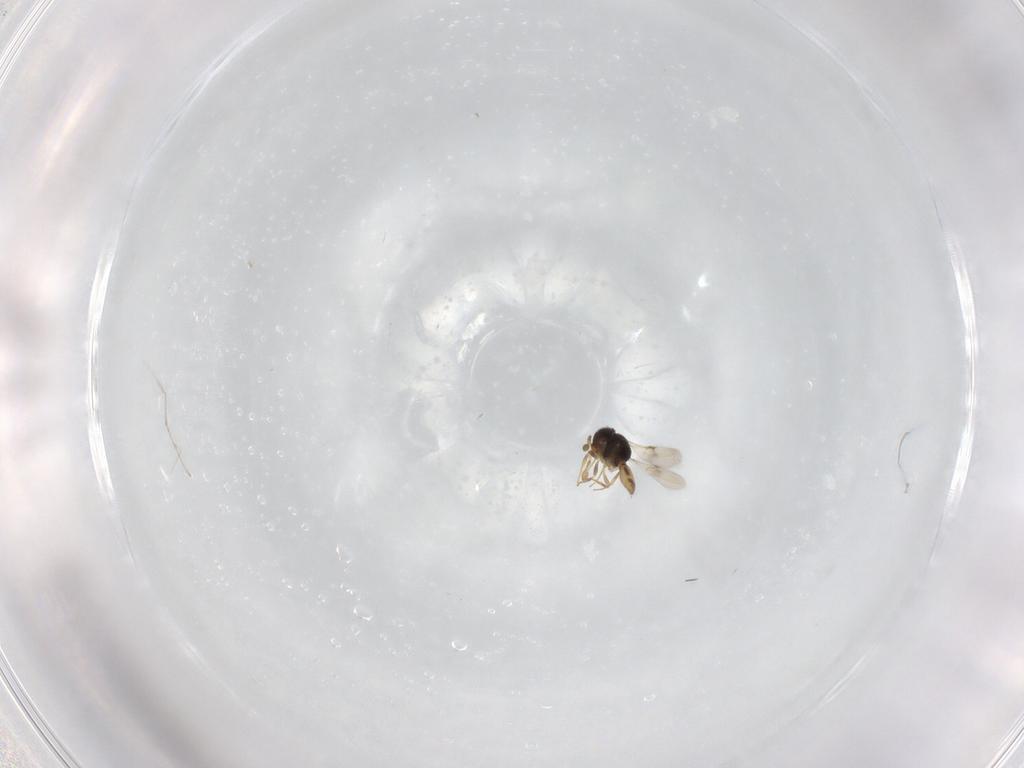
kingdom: Animalia
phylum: Arthropoda
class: Insecta
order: Hymenoptera
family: Scelionidae
